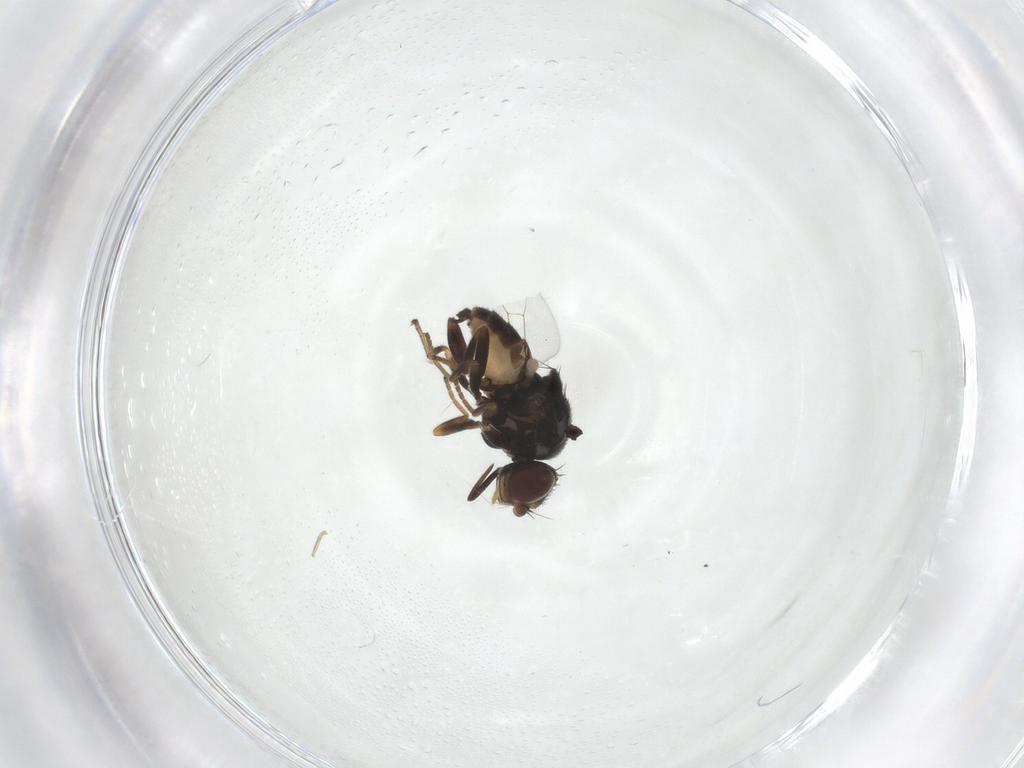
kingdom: Animalia
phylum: Arthropoda
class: Insecta
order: Diptera
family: Chloropidae
